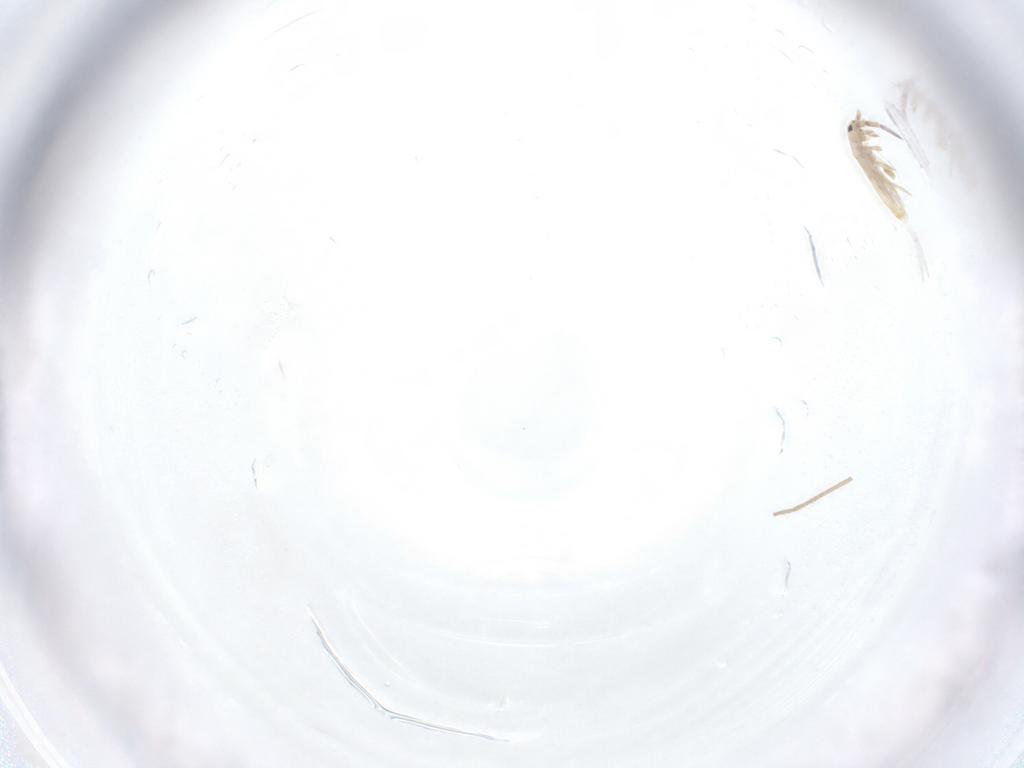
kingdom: Animalia
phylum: Arthropoda
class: Collembola
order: Entomobryomorpha
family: Entomobryidae
